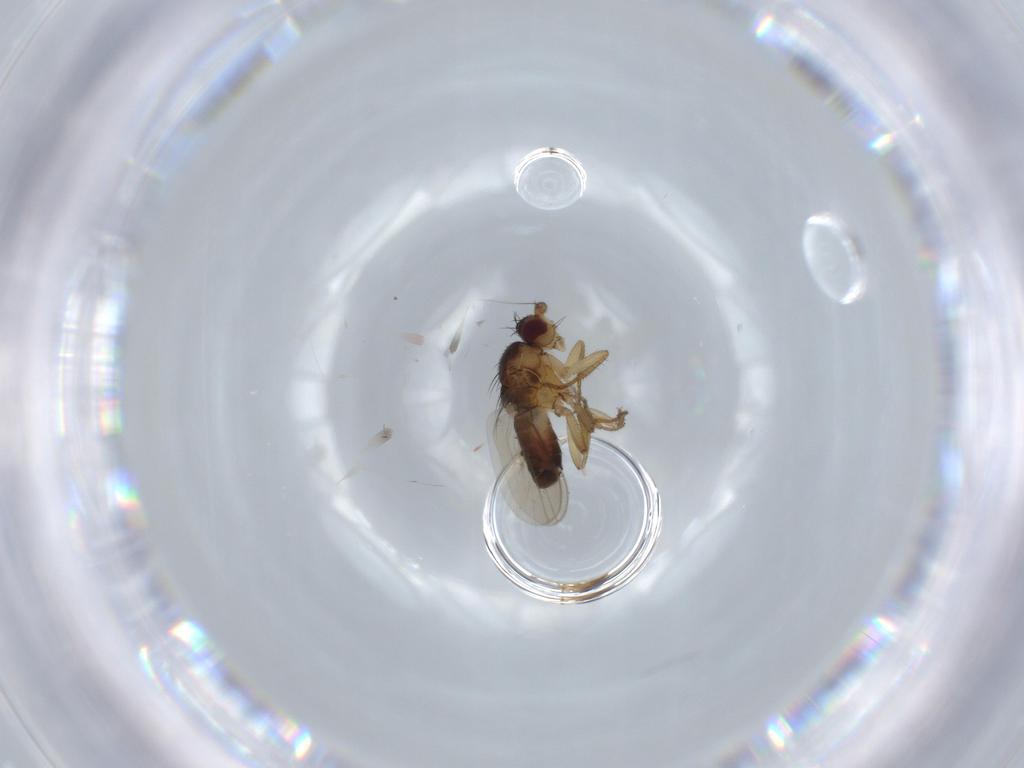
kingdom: Animalia
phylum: Arthropoda
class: Insecta
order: Diptera
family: Sphaeroceridae
